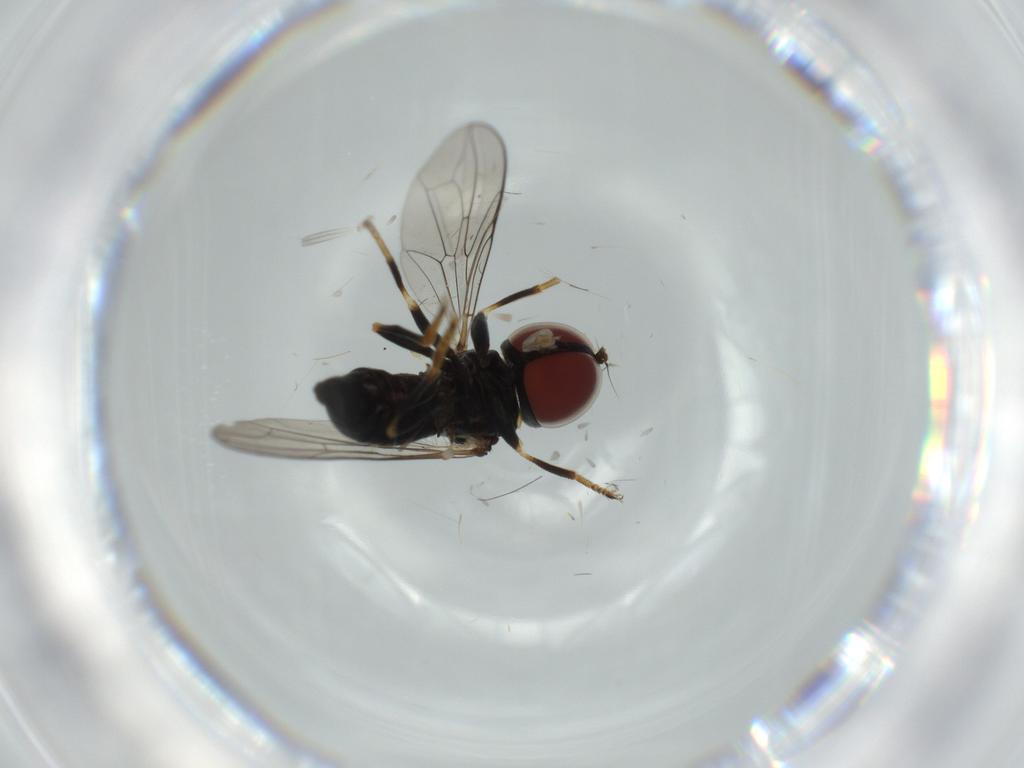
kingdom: Animalia
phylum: Arthropoda
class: Insecta
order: Diptera
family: Pipunculidae
